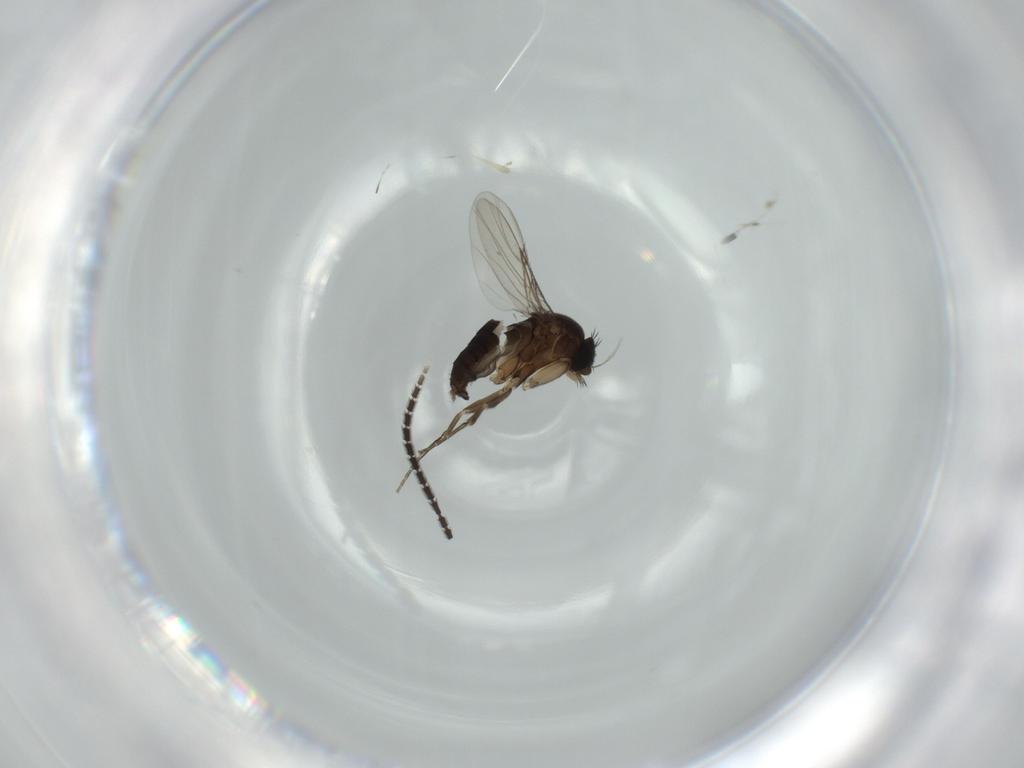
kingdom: Animalia
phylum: Arthropoda
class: Insecta
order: Diptera
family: Phoridae
